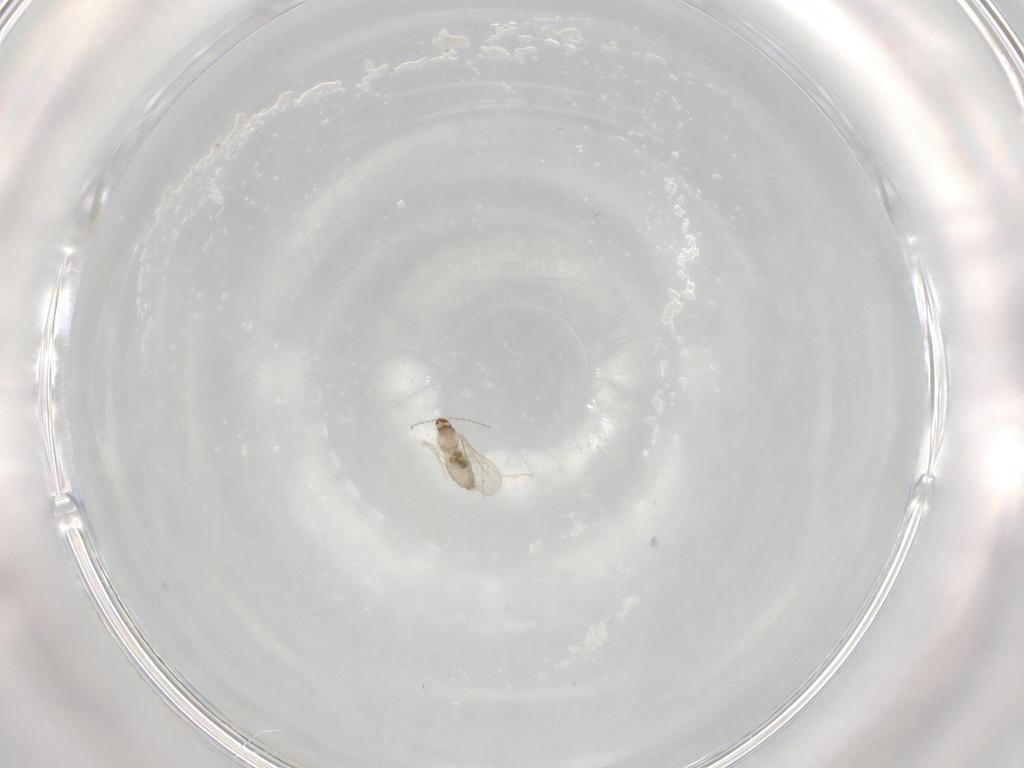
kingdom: Animalia
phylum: Arthropoda
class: Insecta
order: Diptera
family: Cecidomyiidae
